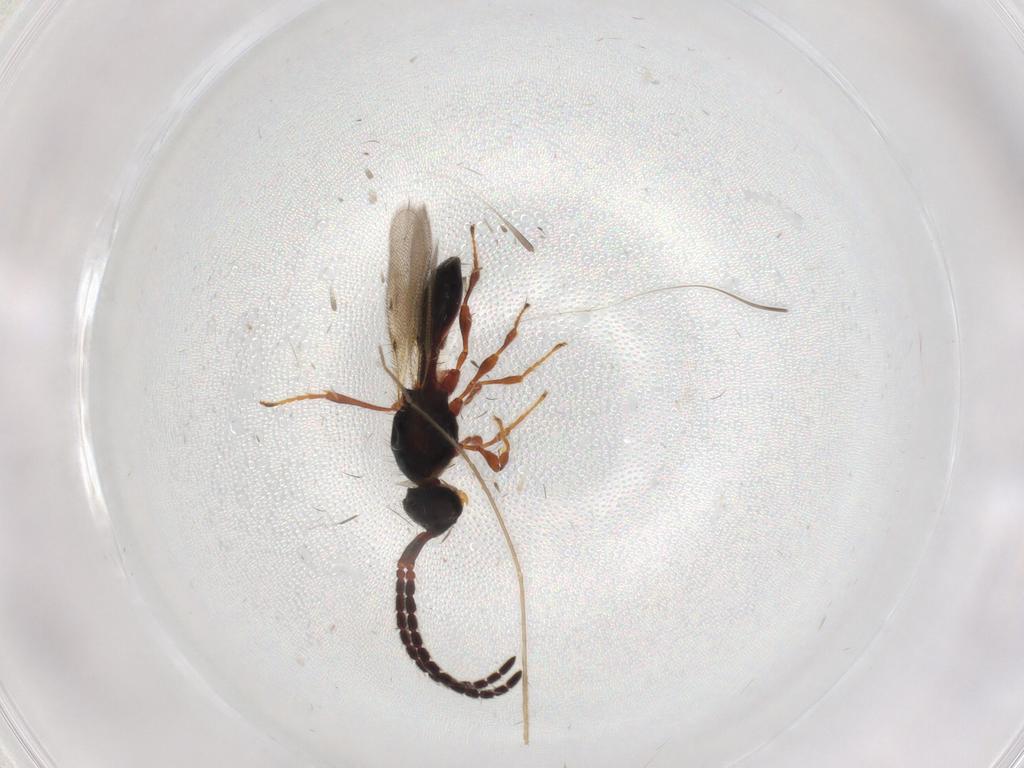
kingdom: Animalia
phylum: Arthropoda
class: Insecta
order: Hymenoptera
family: Diapriidae
